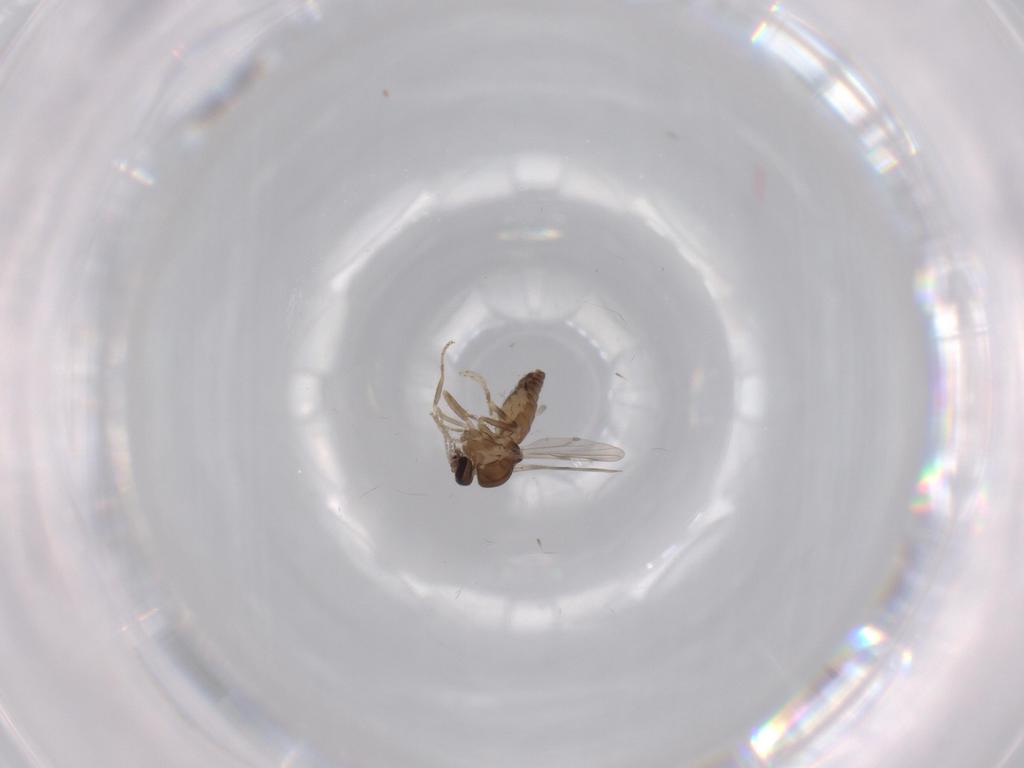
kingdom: Animalia
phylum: Arthropoda
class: Insecta
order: Diptera
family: Ceratopogonidae
